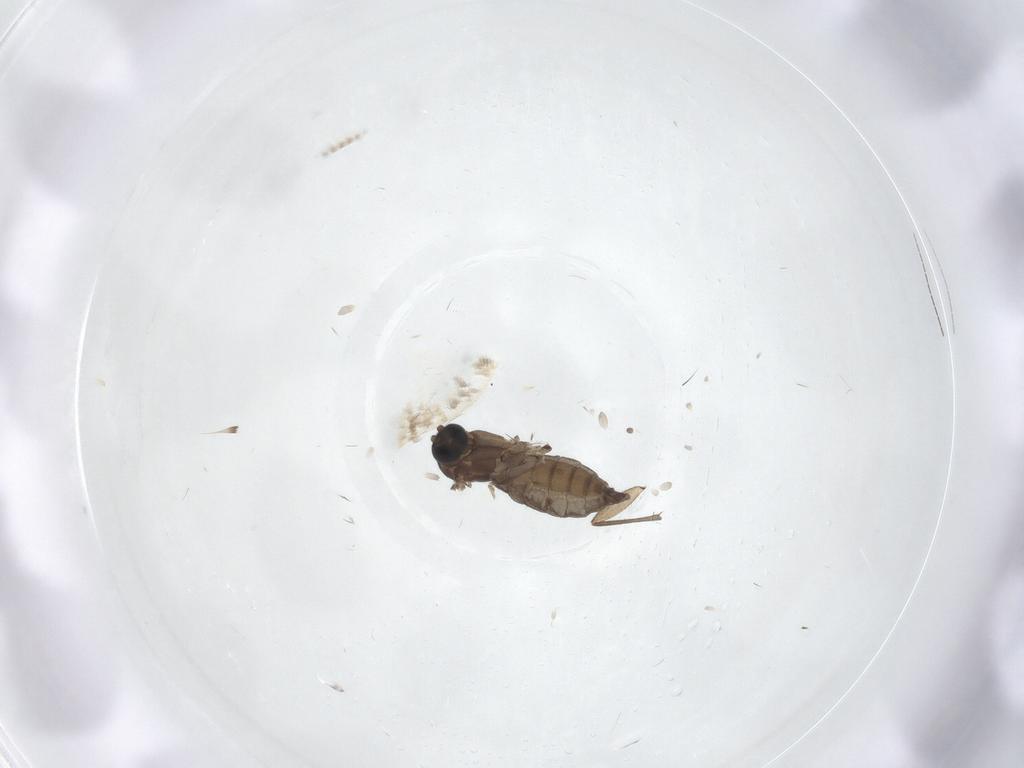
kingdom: Animalia
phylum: Arthropoda
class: Insecta
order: Diptera
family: Sciaridae
